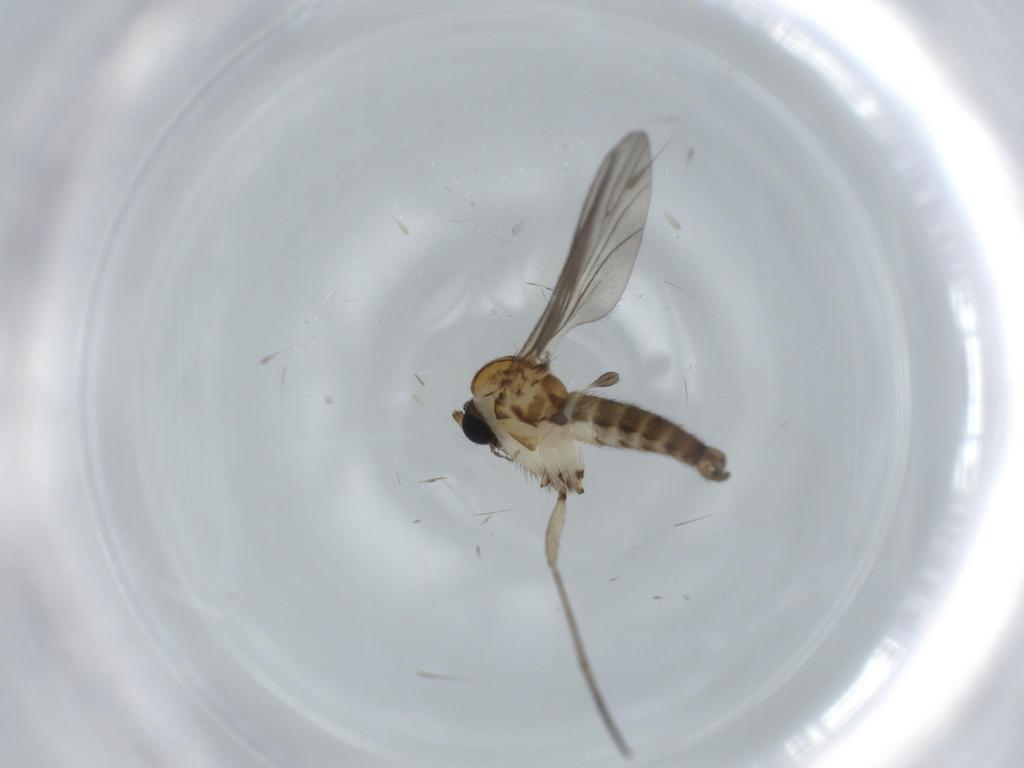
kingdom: Animalia
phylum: Arthropoda
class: Insecta
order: Diptera
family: Sciaridae
